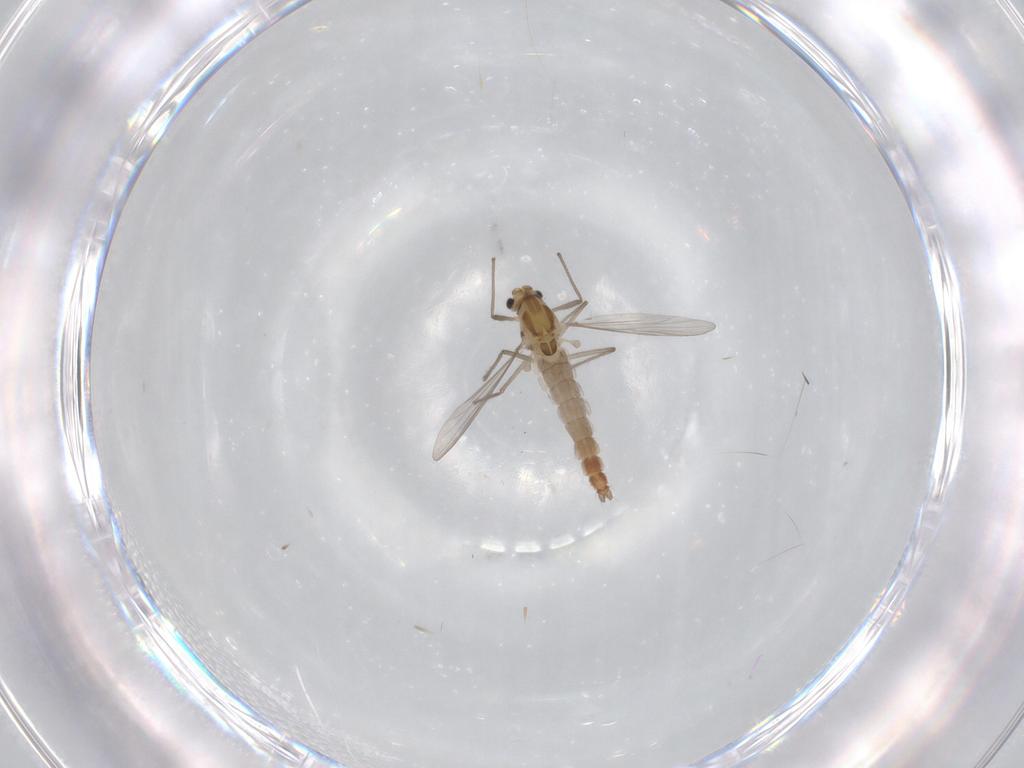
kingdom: Animalia
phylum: Arthropoda
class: Insecta
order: Diptera
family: Chironomidae
